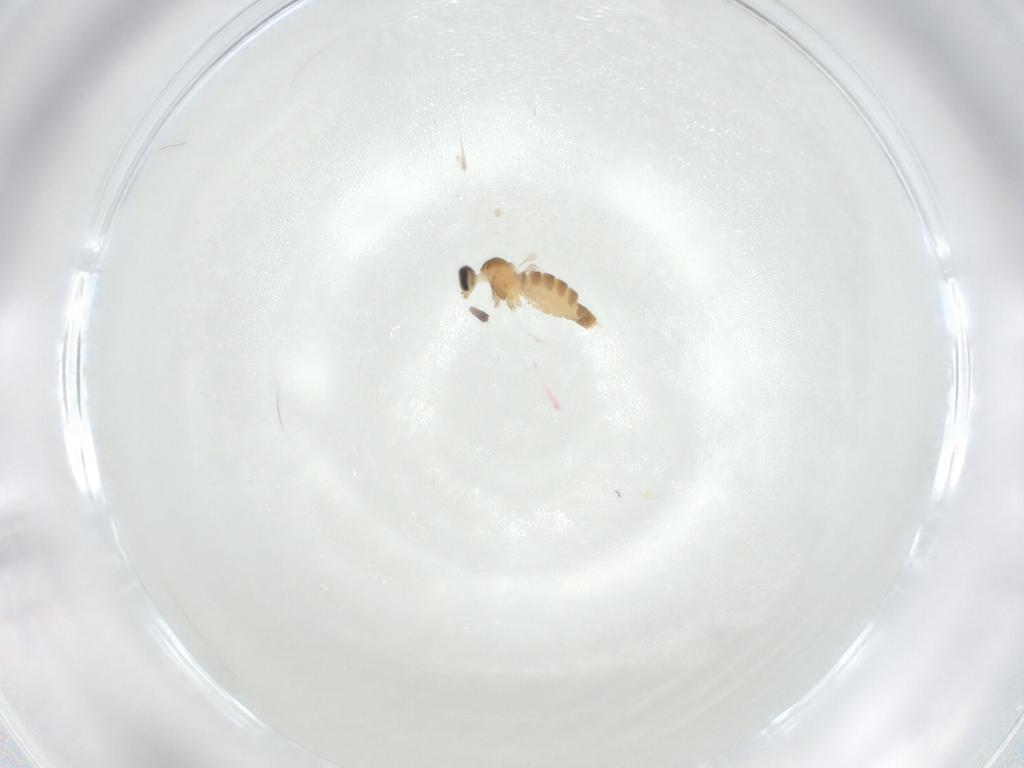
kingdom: Animalia
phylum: Arthropoda
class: Insecta
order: Diptera
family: Cecidomyiidae
